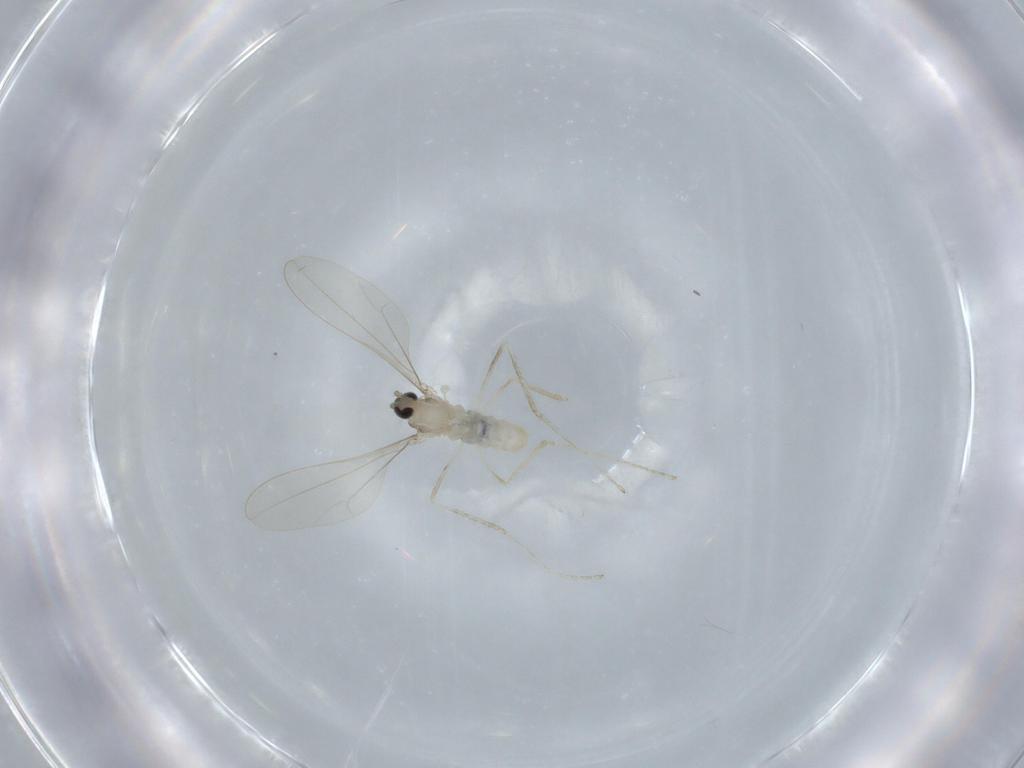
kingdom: Animalia
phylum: Arthropoda
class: Insecta
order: Diptera
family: Cecidomyiidae
